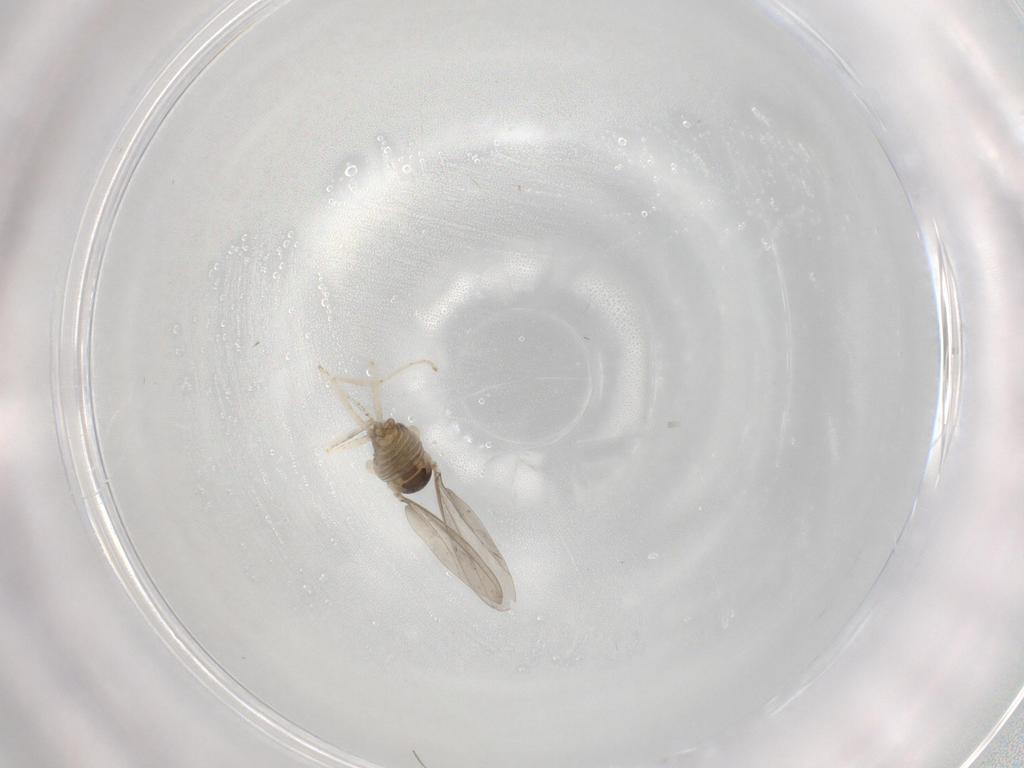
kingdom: Animalia
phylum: Arthropoda
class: Insecta
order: Diptera
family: Cecidomyiidae
